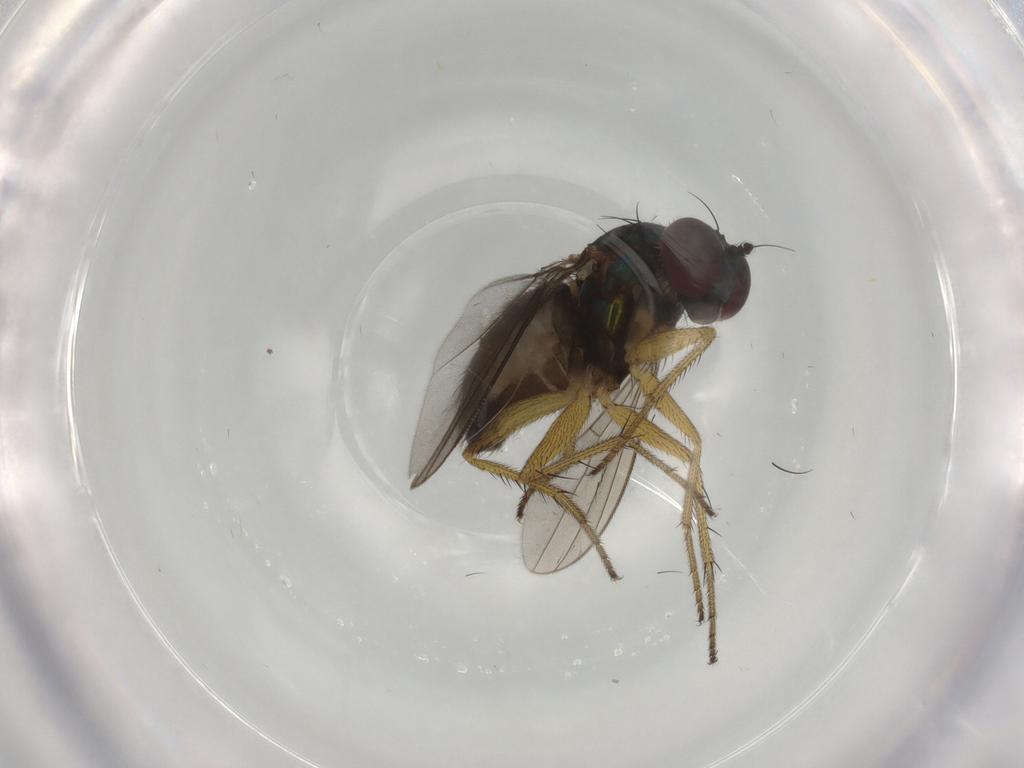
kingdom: Animalia
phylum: Arthropoda
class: Insecta
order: Diptera
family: Dolichopodidae
